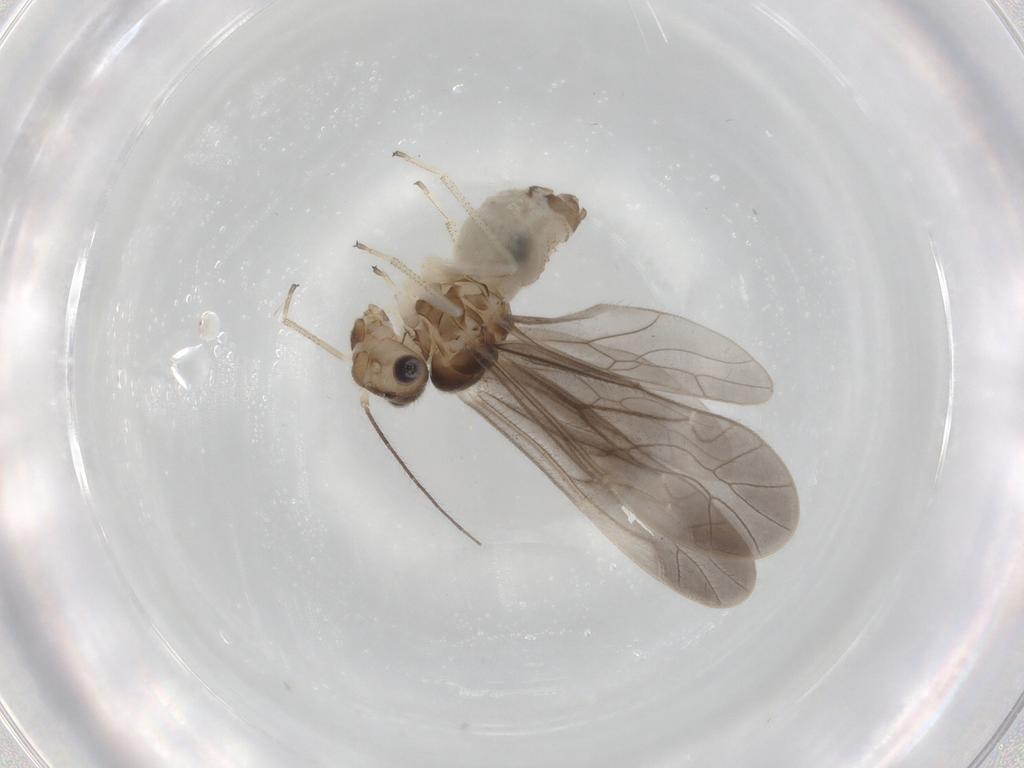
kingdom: Animalia
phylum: Arthropoda
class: Insecta
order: Psocodea
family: Caeciliusidae
